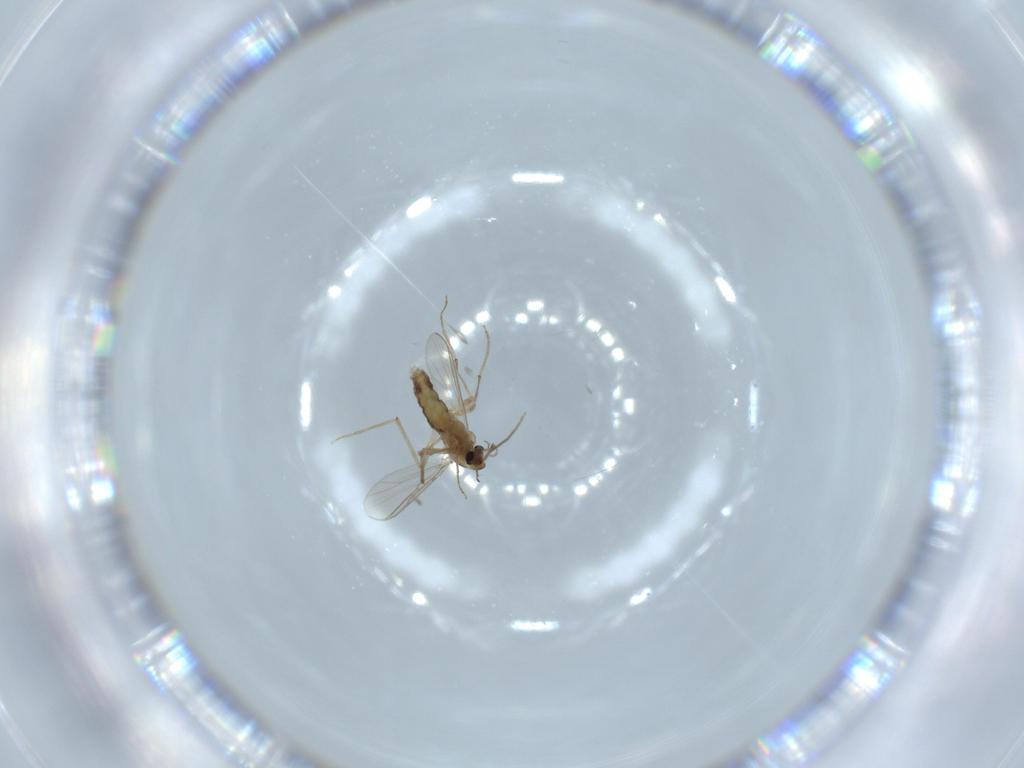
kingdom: Animalia
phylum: Arthropoda
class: Insecta
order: Diptera
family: Chironomidae
